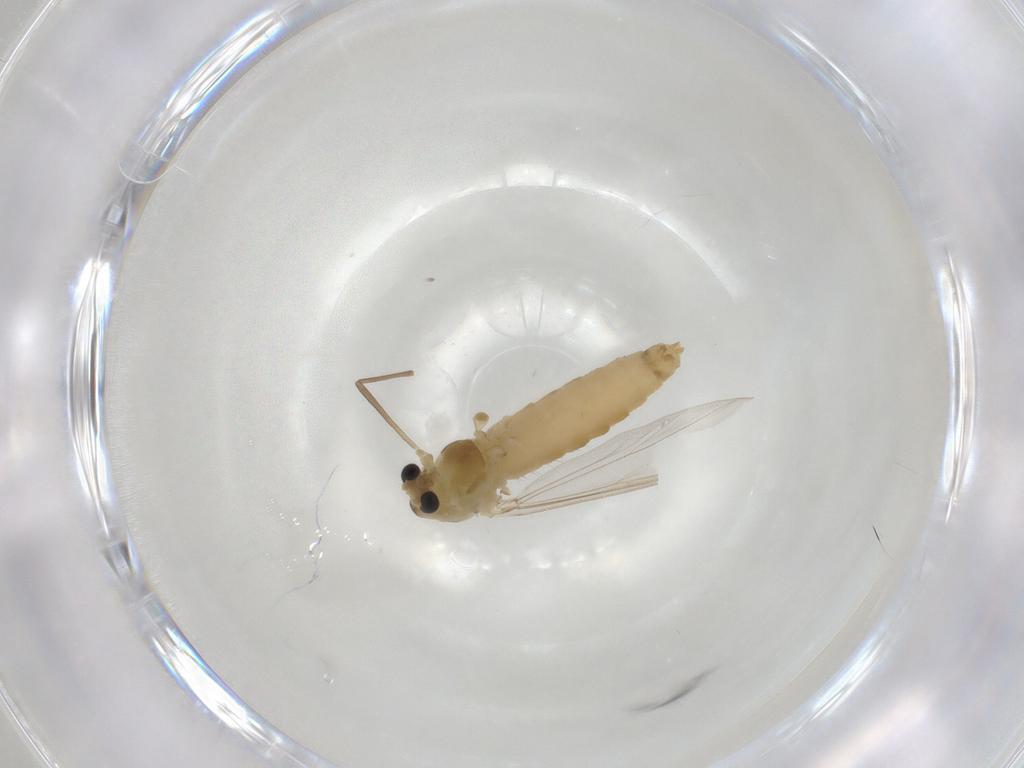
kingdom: Animalia
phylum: Arthropoda
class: Insecta
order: Diptera
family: Chironomidae
